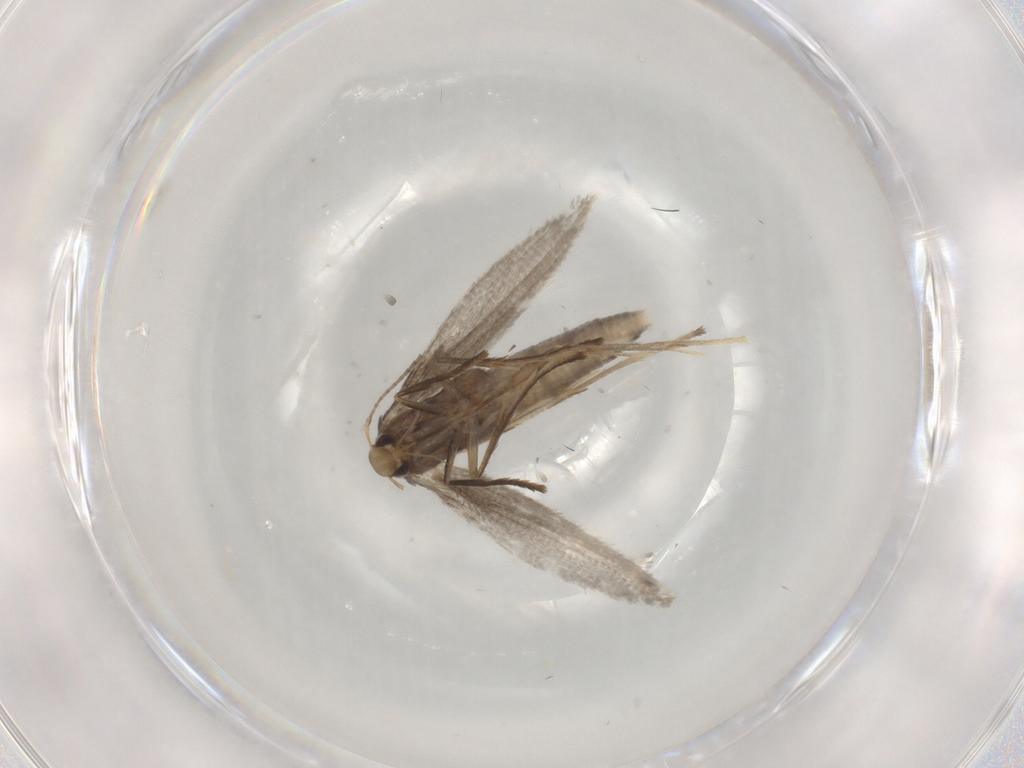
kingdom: Animalia
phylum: Arthropoda
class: Insecta
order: Lepidoptera
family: Gracillariidae
